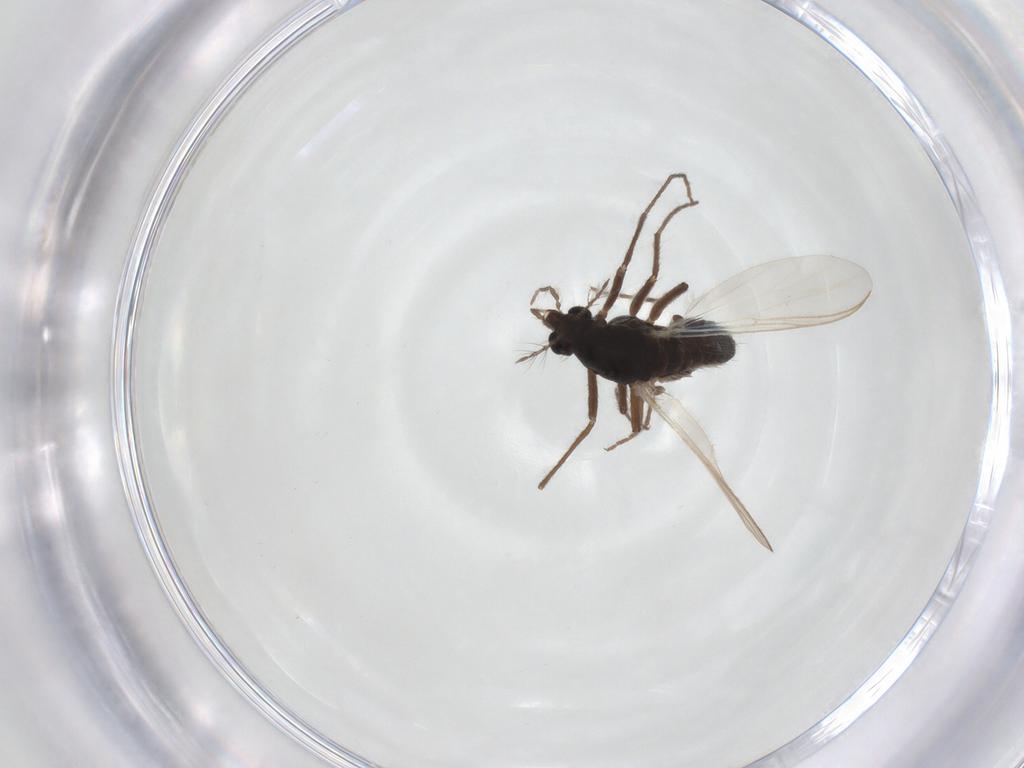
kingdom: Animalia
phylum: Arthropoda
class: Insecta
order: Diptera
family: Chironomidae
